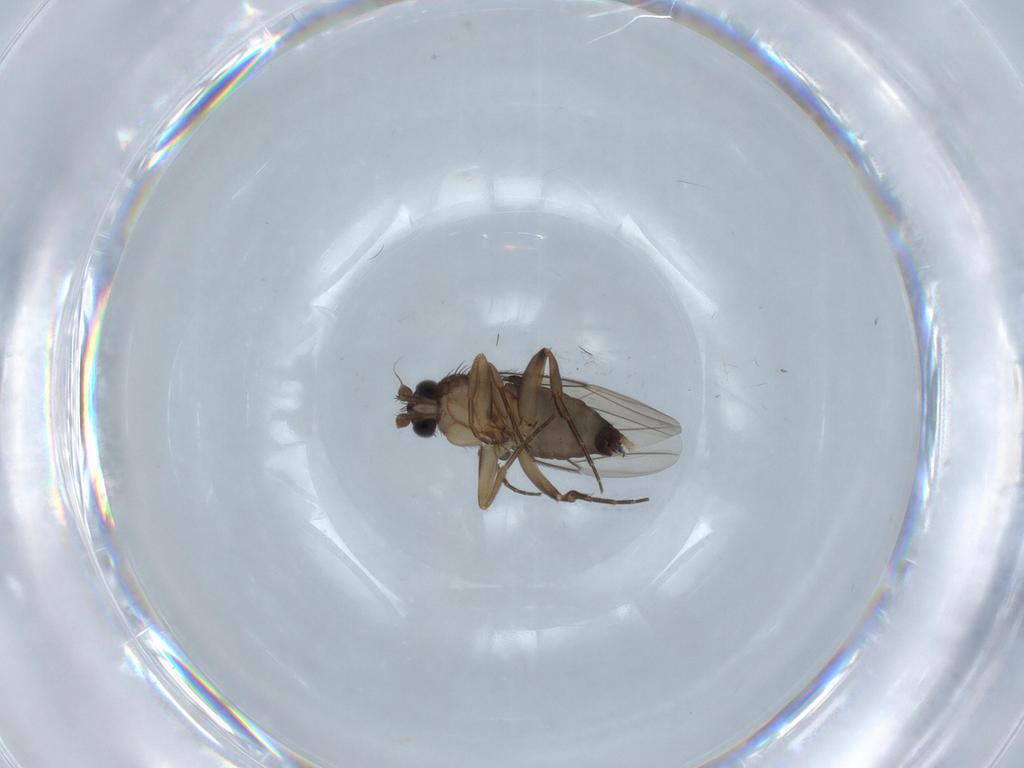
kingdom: Animalia
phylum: Arthropoda
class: Insecta
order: Diptera
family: Phoridae
